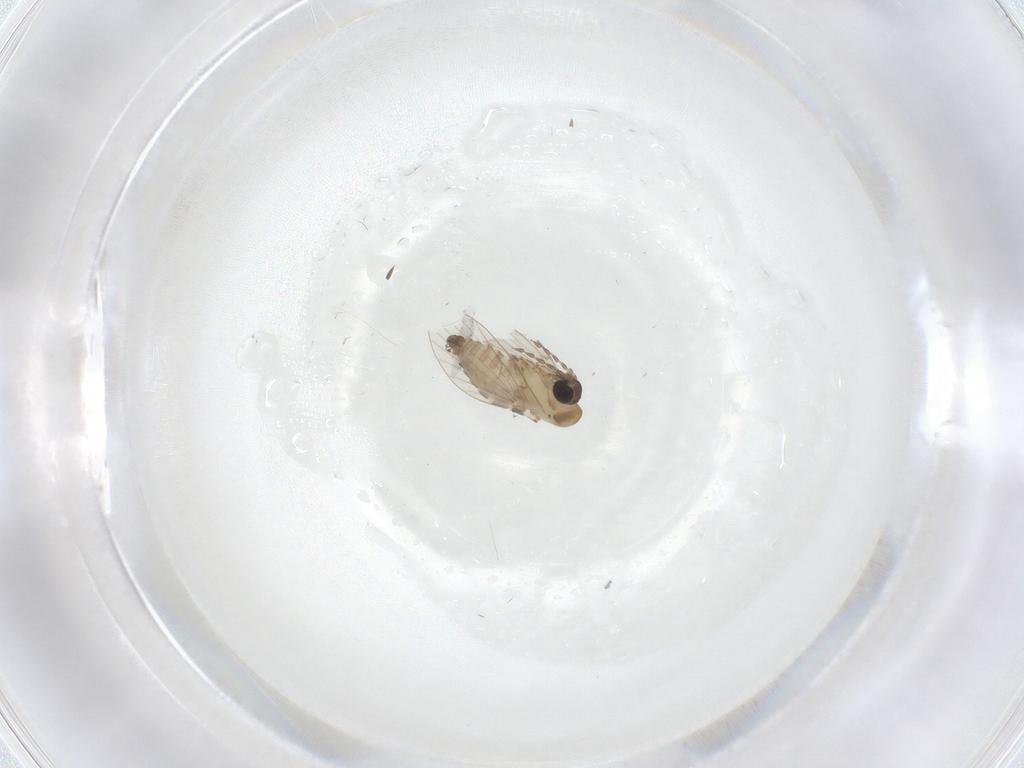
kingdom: Animalia
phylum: Arthropoda
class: Insecta
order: Diptera
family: Psychodidae
